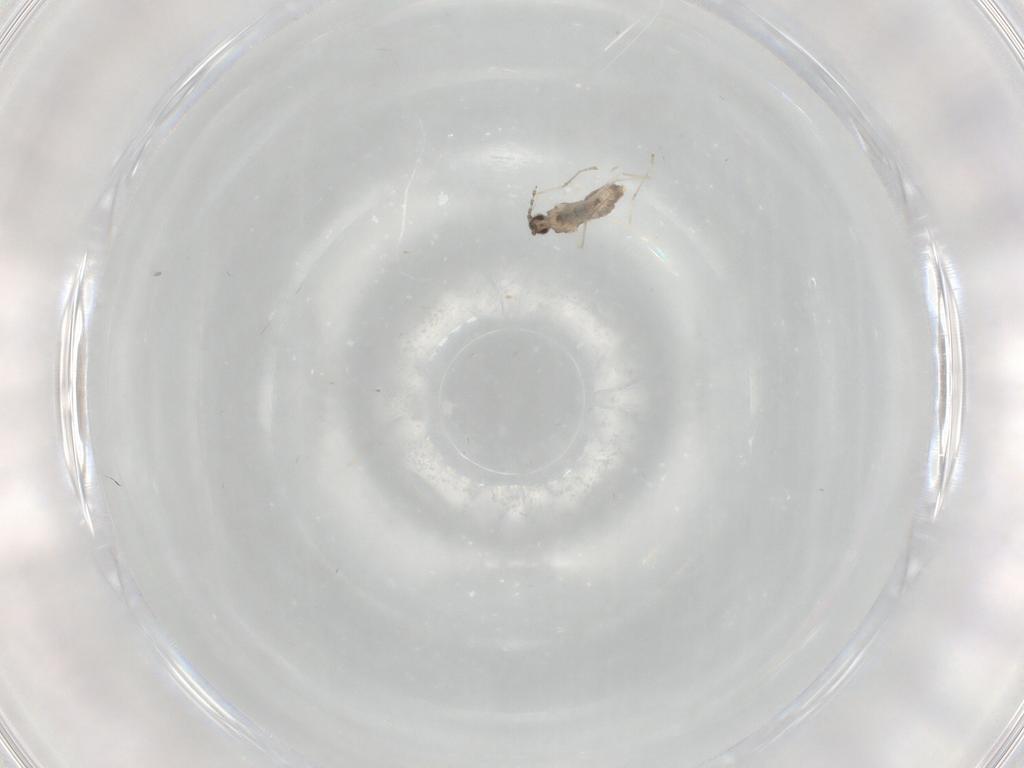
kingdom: Animalia
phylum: Arthropoda
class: Insecta
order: Diptera
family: Cecidomyiidae
